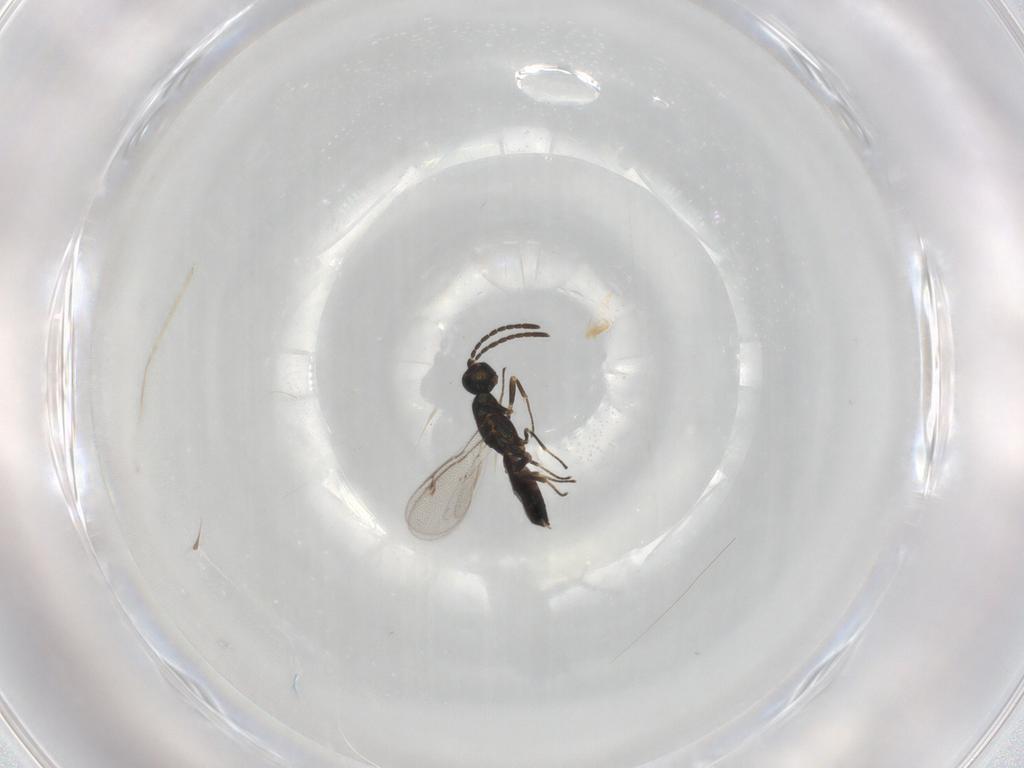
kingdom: Animalia
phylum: Arthropoda
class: Insecta
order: Hymenoptera
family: Eupelmidae
